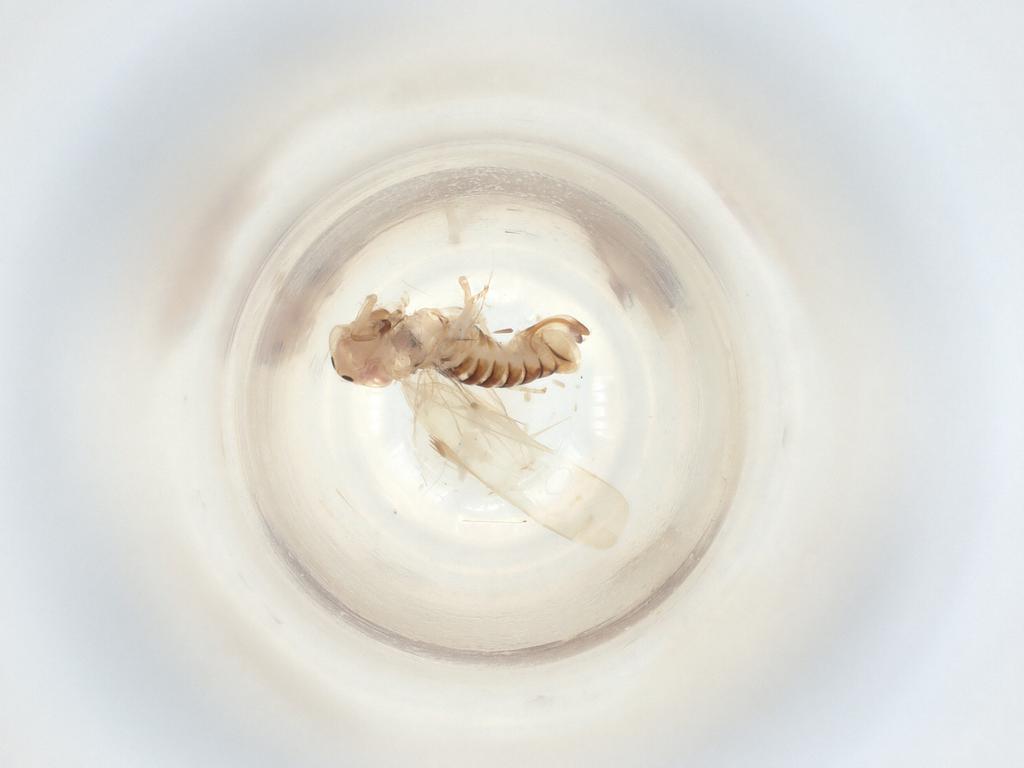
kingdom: Animalia
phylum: Arthropoda
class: Insecta
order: Hemiptera
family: Cicadellidae
